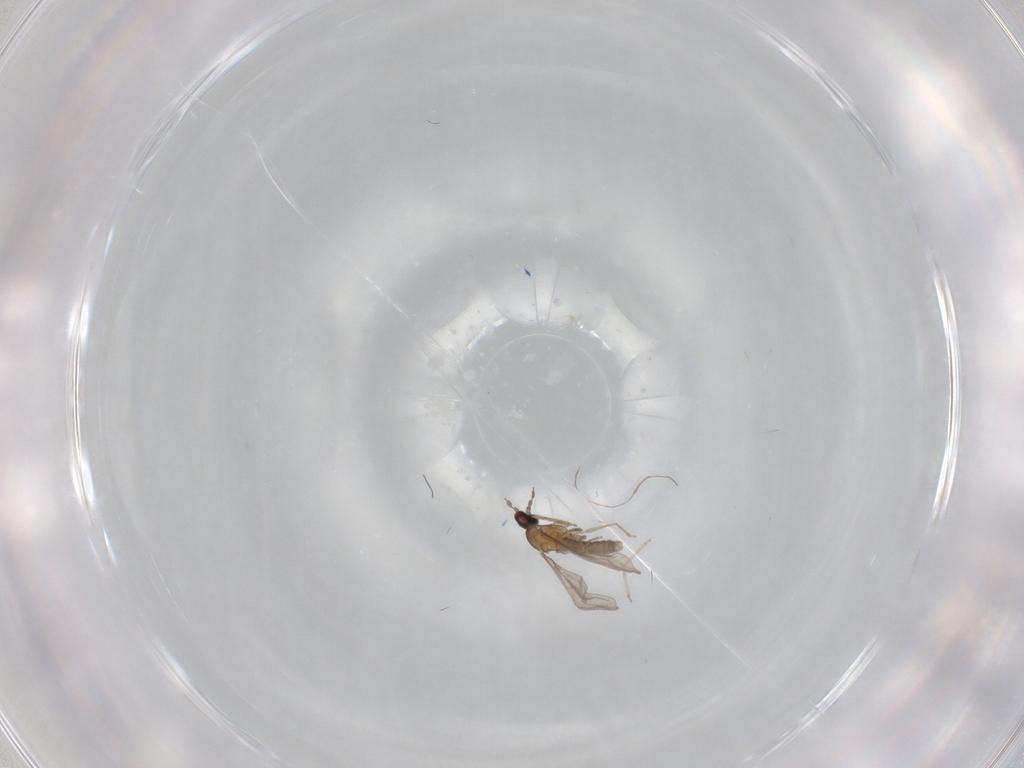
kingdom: Animalia
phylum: Arthropoda
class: Insecta
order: Diptera
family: Cecidomyiidae
